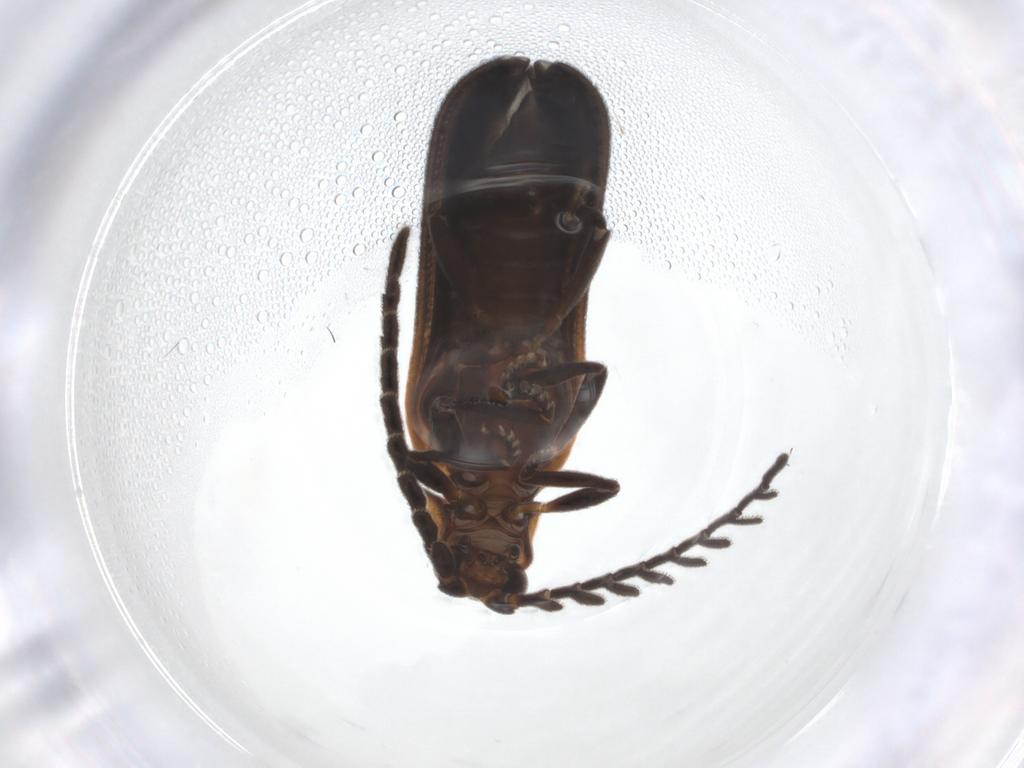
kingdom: Animalia
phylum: Arthropoda
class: Insecta
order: Coleoptera
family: Lycidae
